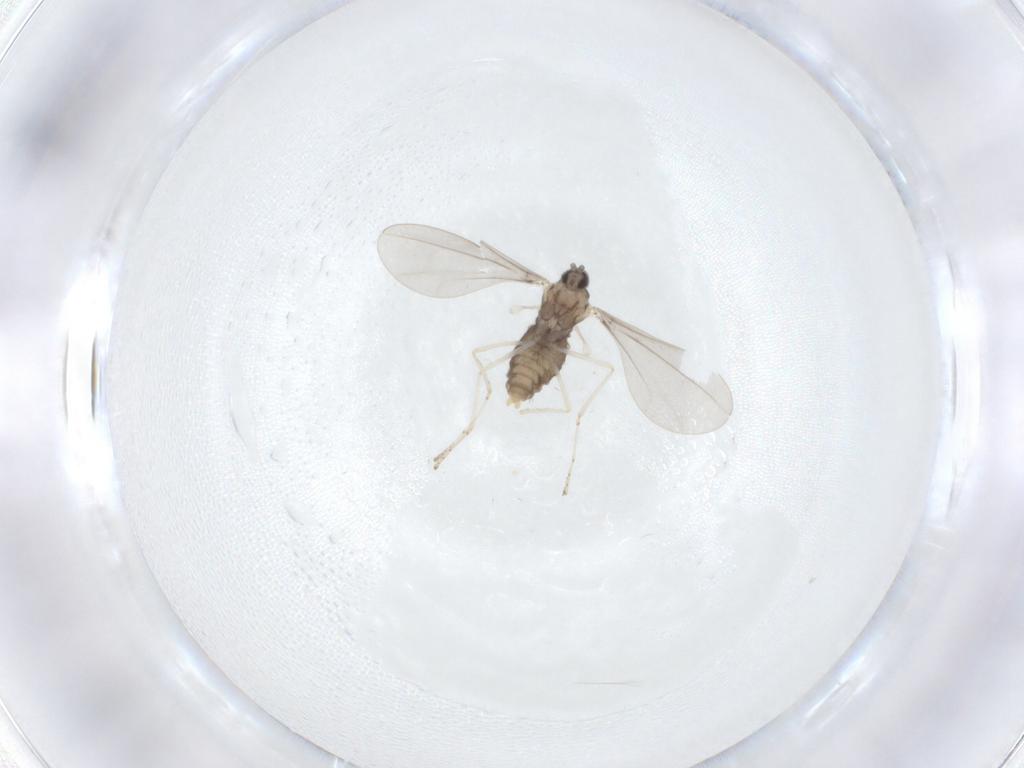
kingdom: Animalia
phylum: Arthropoda
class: Insecta
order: Diptera
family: Cecidomyiidae
